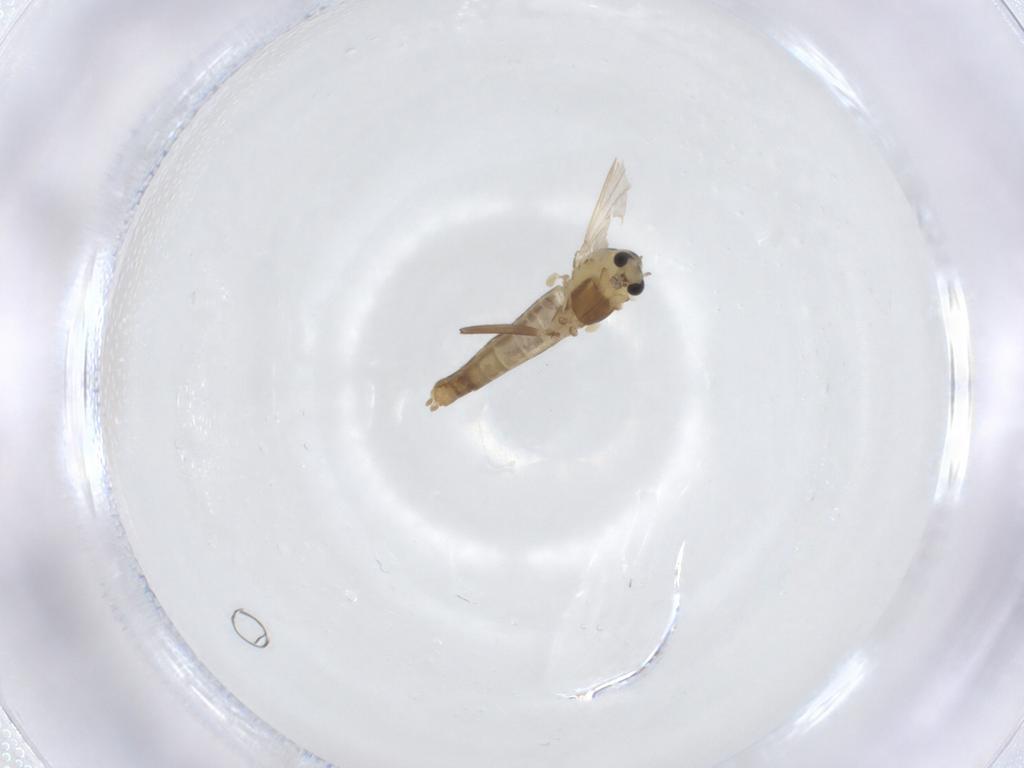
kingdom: Animalia
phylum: Arthropoda
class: Insecta
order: Diptera
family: Chironomidae
